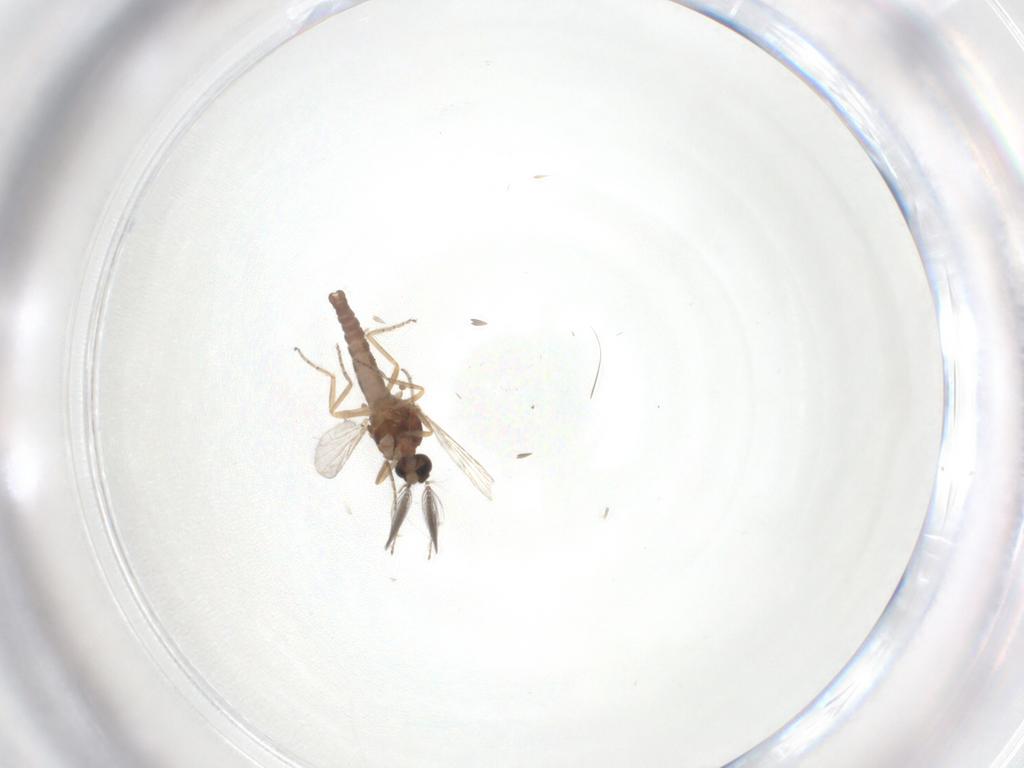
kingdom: Animalia
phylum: Arthropoda
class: Insecta
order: Diptera
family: Ceratopogonidae
